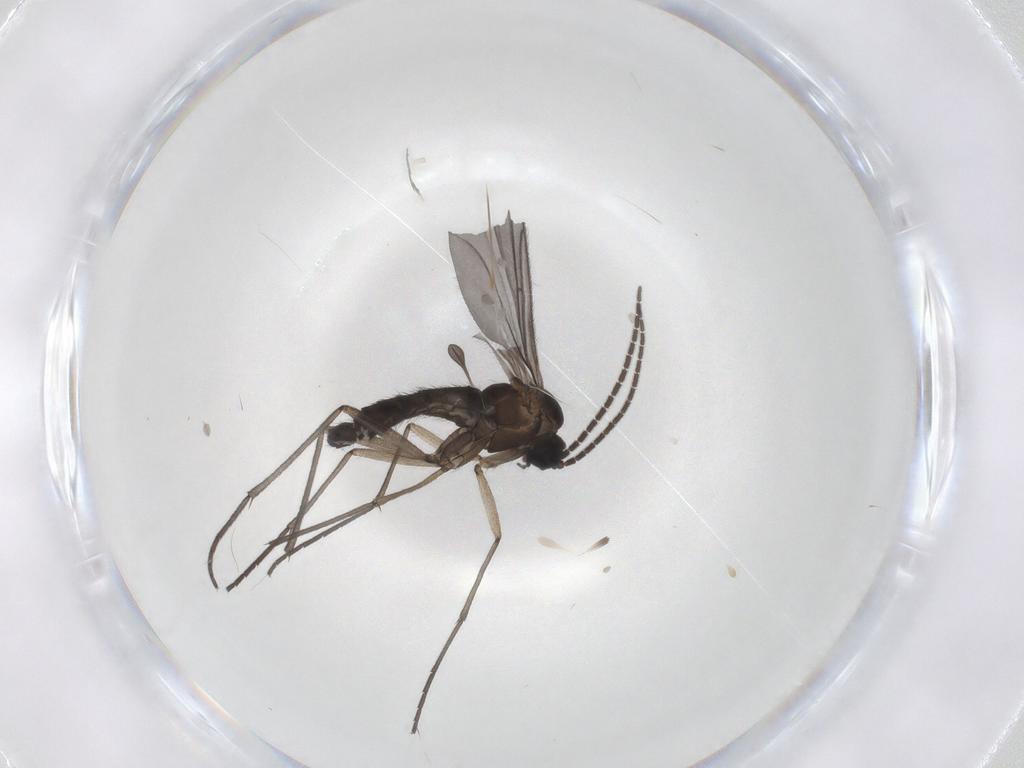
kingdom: Animalia
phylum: Arthropoda
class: Insecta
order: Diptera
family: Sciaridae
